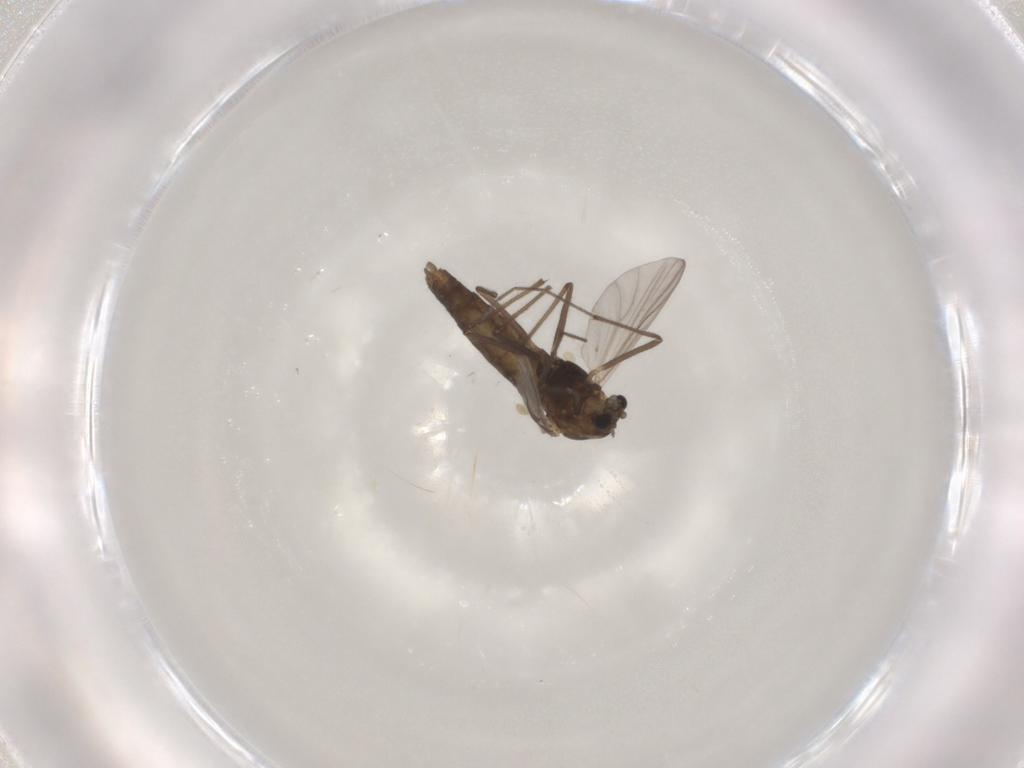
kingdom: Animalia
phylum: Arthropoda
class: Insecta
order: Diptera
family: Chironomidae
